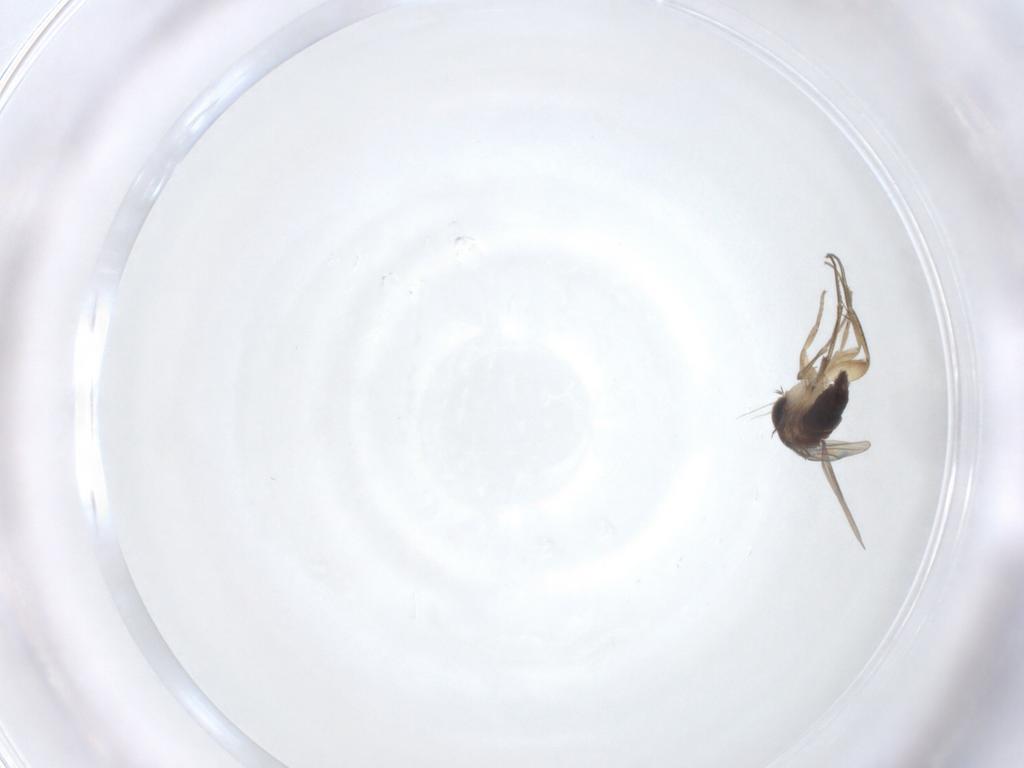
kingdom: Animalia
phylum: Arthropoda
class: Insecta
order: Diptera
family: Phoridae
